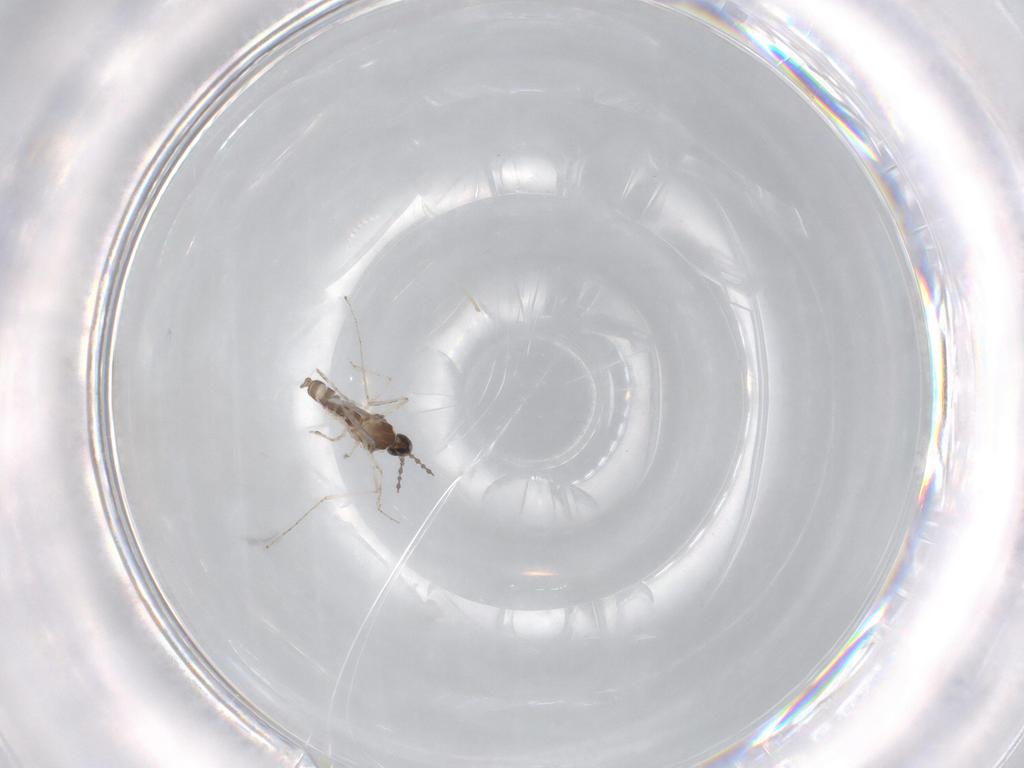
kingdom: Animalia
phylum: Arthropoda
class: Insecta
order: Diptera
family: Cecidomyiidae
